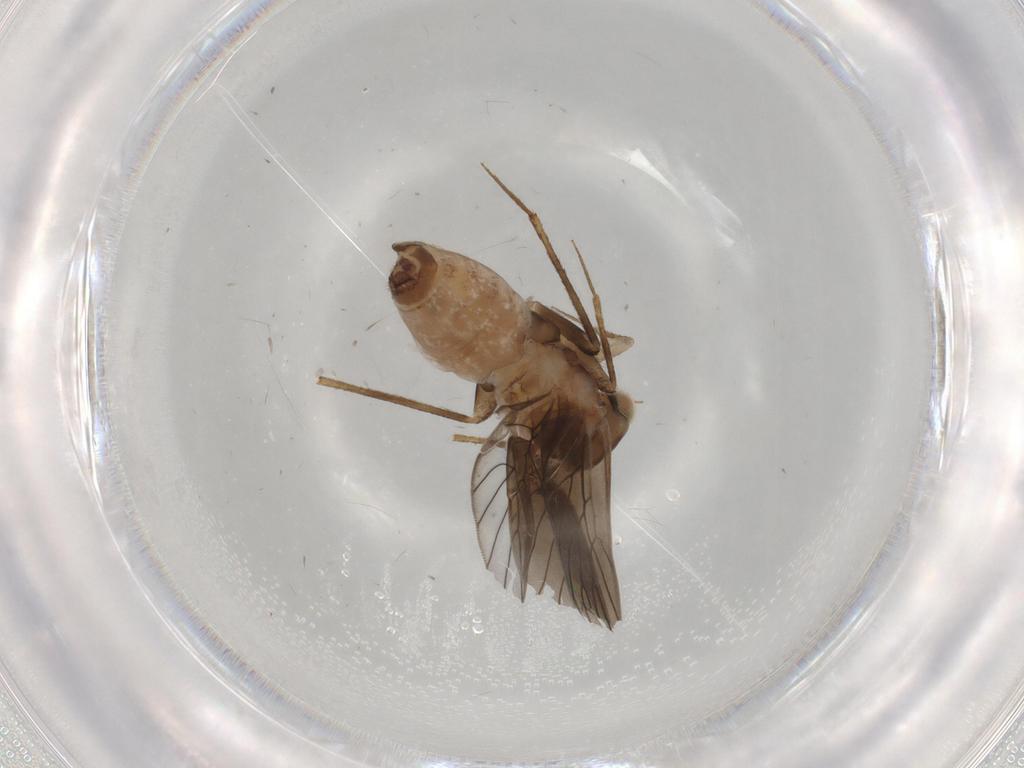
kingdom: Animalia
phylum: Arthropoda
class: Insecta
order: Psocodea
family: Lepidopsocidae
